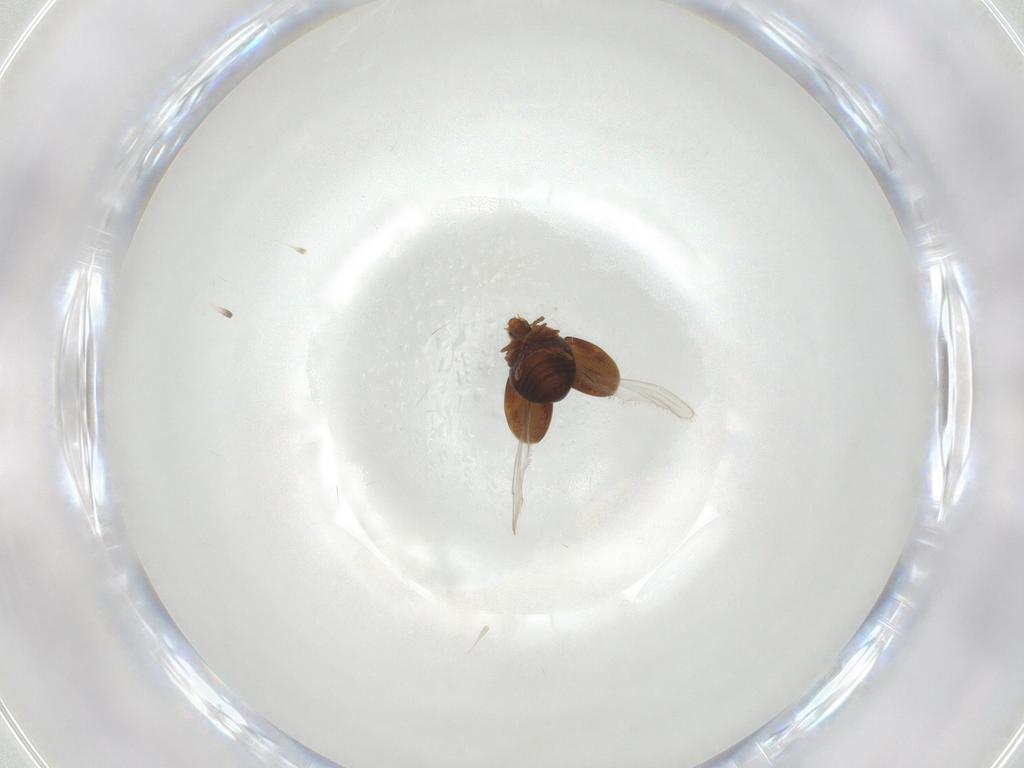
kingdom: Animalia
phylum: Arthropoda
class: Insecta
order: Coleoptera
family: Corylophidae
